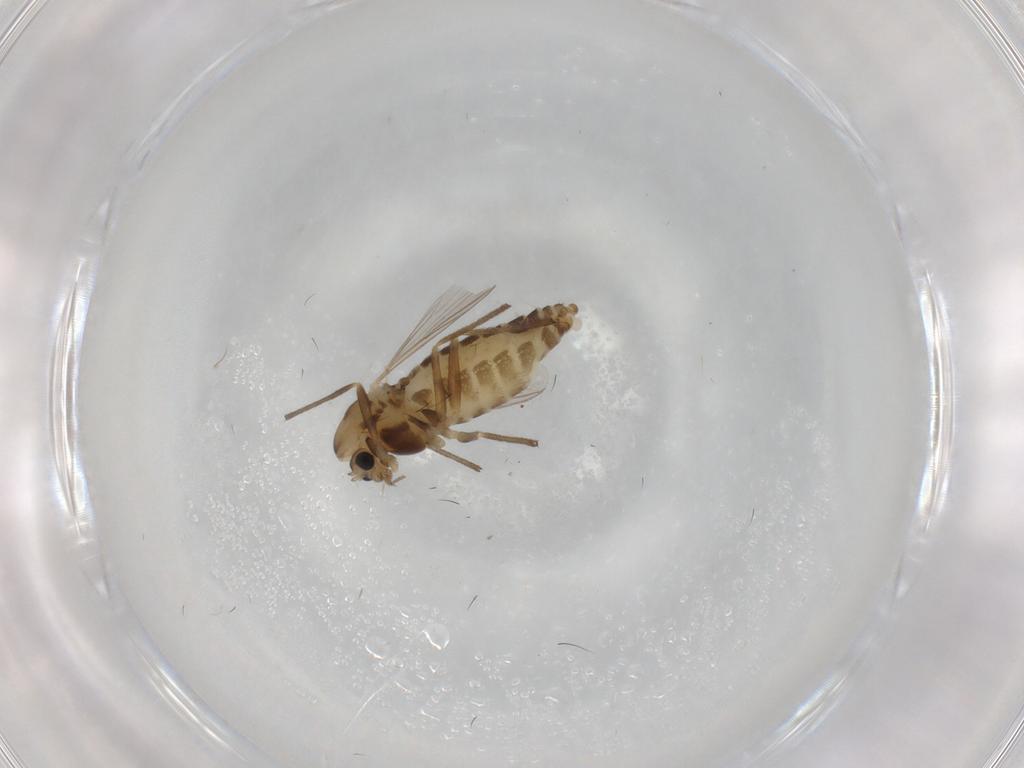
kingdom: Animalia
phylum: Arthropoda
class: Insecta
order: Diptera
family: Chironomidae
